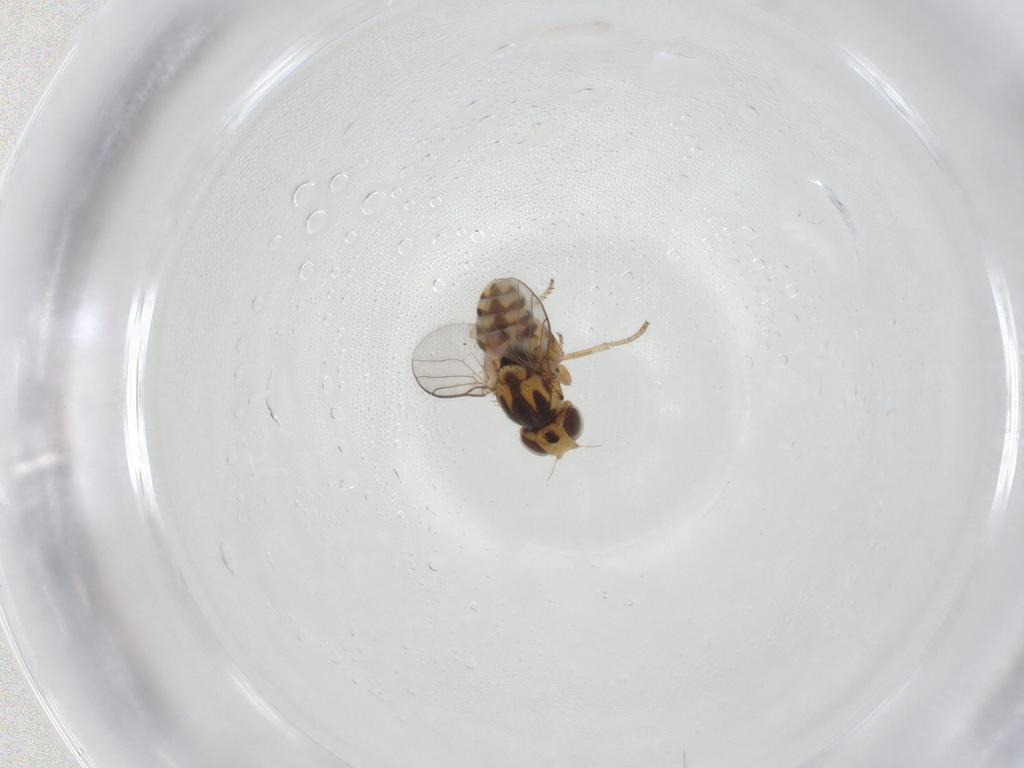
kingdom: Animalia
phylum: Arthropoda
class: Insecta
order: Diptera
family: Chloropidae
